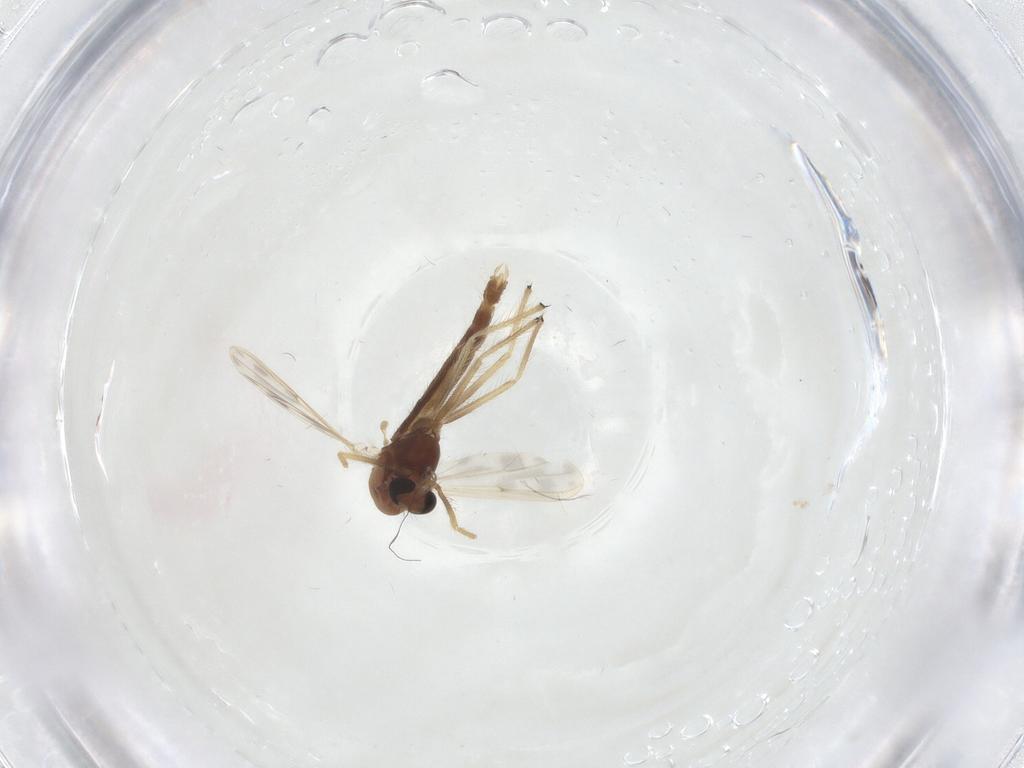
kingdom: Animalia
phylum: Arthropoda
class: Insecta
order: Diptera
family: Chironomidae
